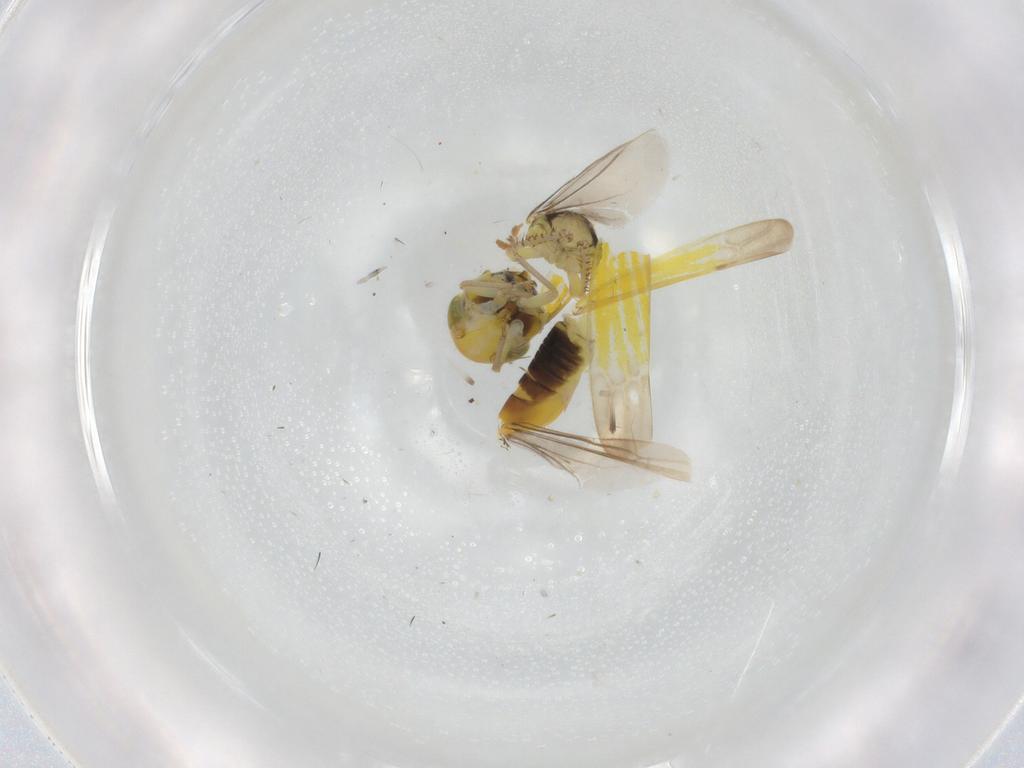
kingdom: Animalia
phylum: Arthropoda
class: Insecta
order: Hemiptera
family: Cicadellidae
